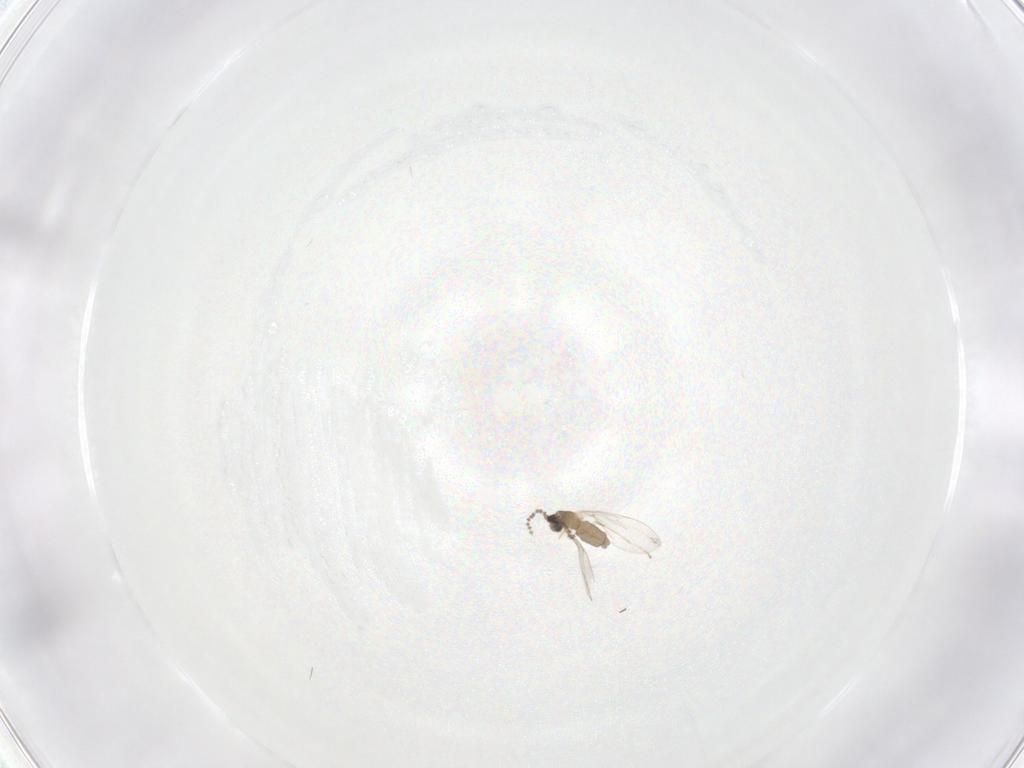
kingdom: Animalia
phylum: Arthropoda
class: Insecta
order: Diptera
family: Cecidomyiidae
